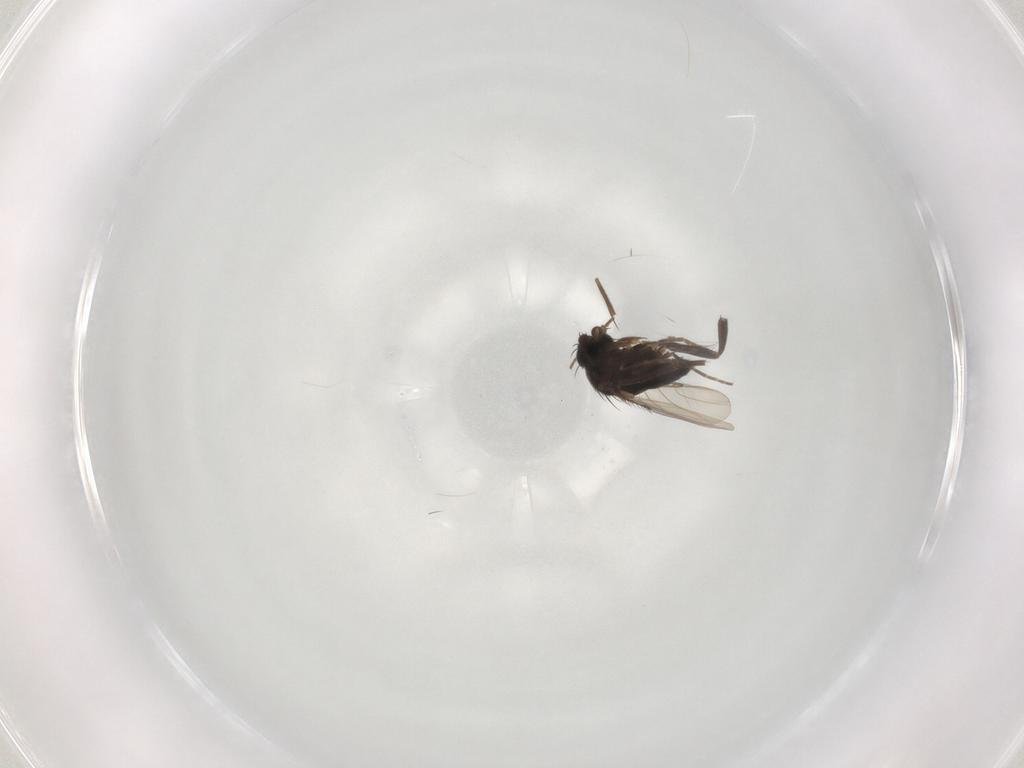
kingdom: Animalia
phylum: Arthropoda
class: Insecta
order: Diptera
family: Phoridae
